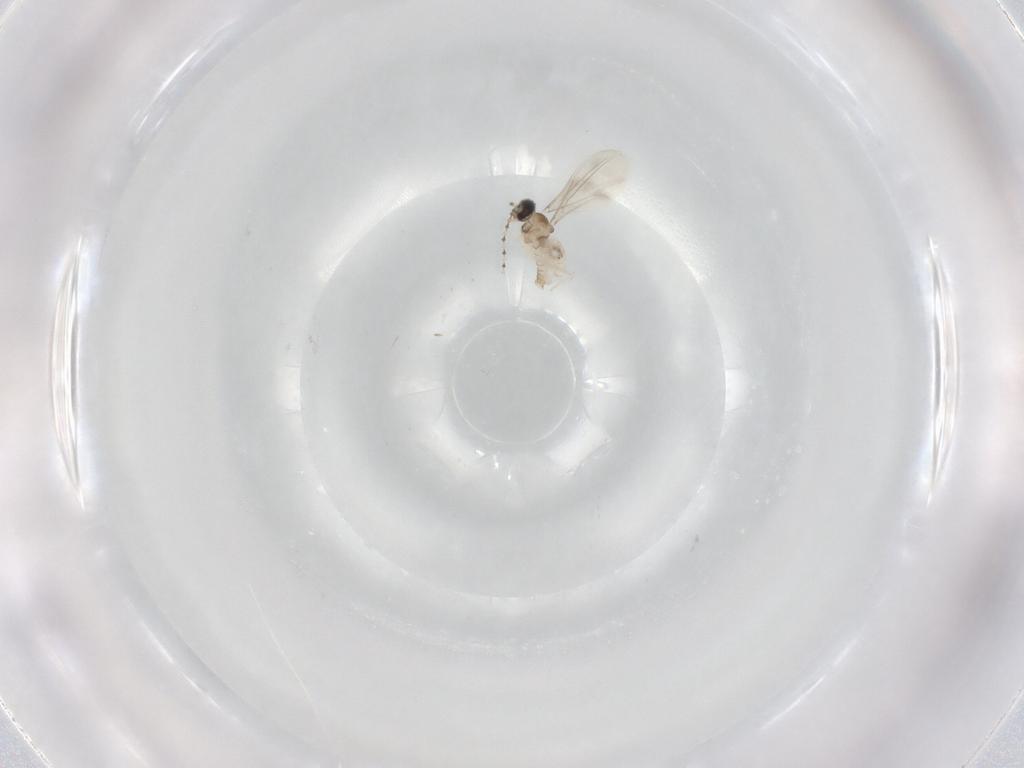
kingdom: Animalia
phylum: Arthropoda
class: Insecta
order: Diptera
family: Cecidomyiidae
